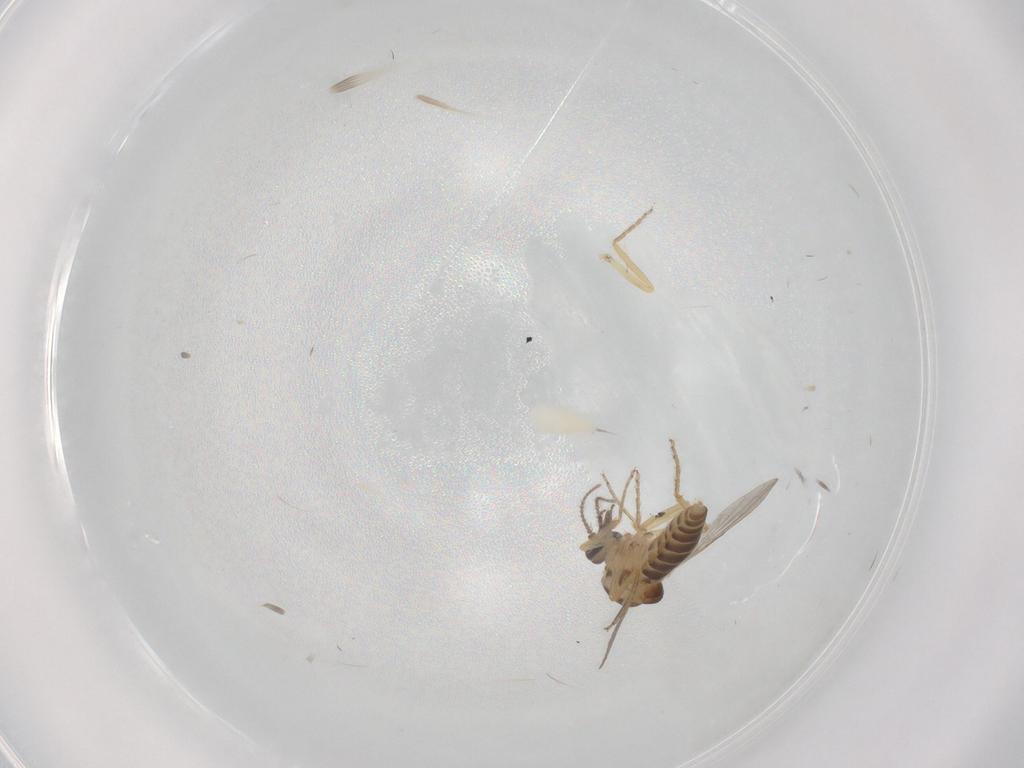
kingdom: Animalia
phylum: Arthropoda
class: Insecta
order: Diptera
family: Ceratopogonidae
